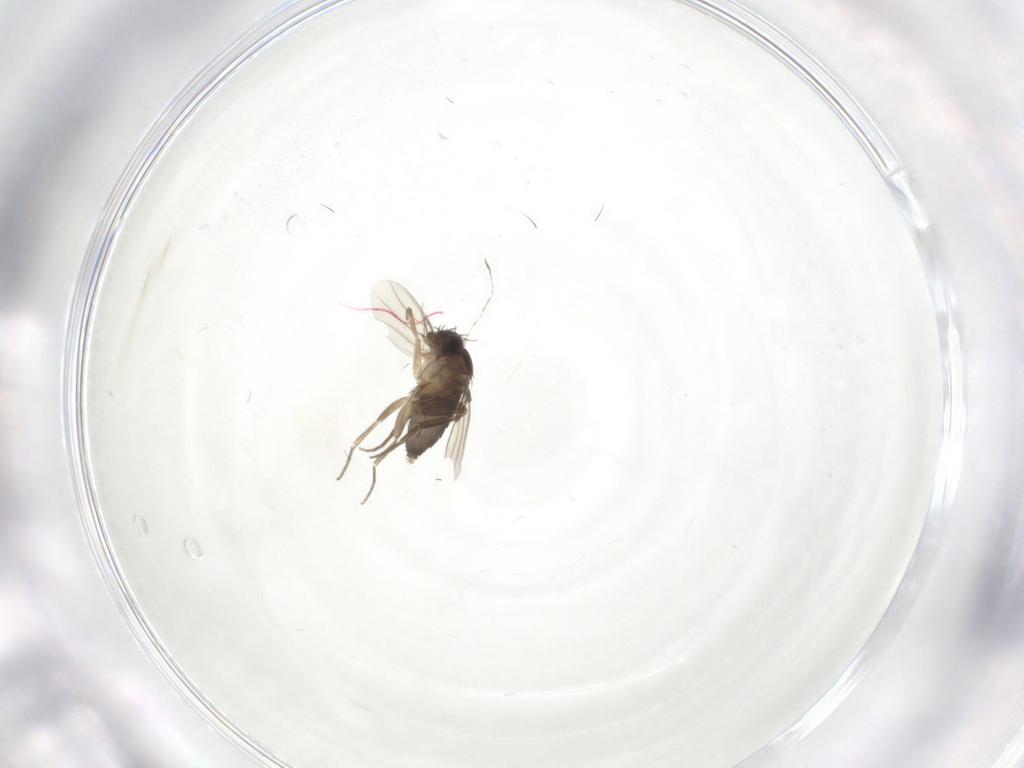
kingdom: Animalia
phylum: Arthropoda
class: Insecta
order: Diptera
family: Phoridae
